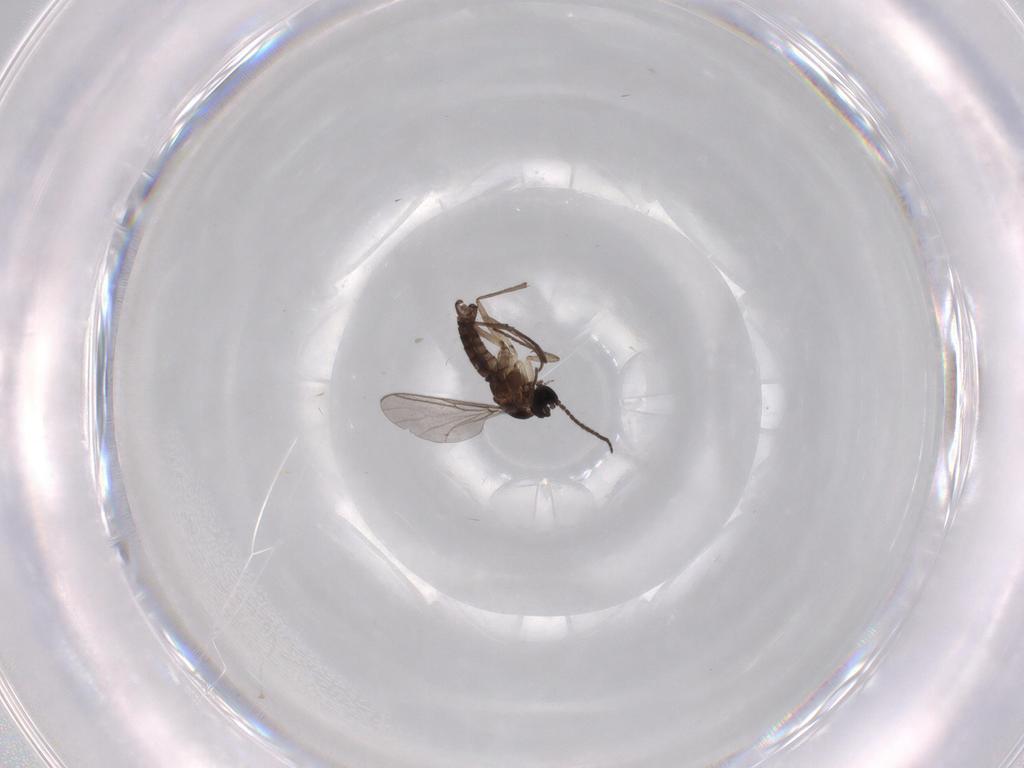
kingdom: Animalia
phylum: Arthropoda
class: Insecta
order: Diptera
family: Sciaridae
